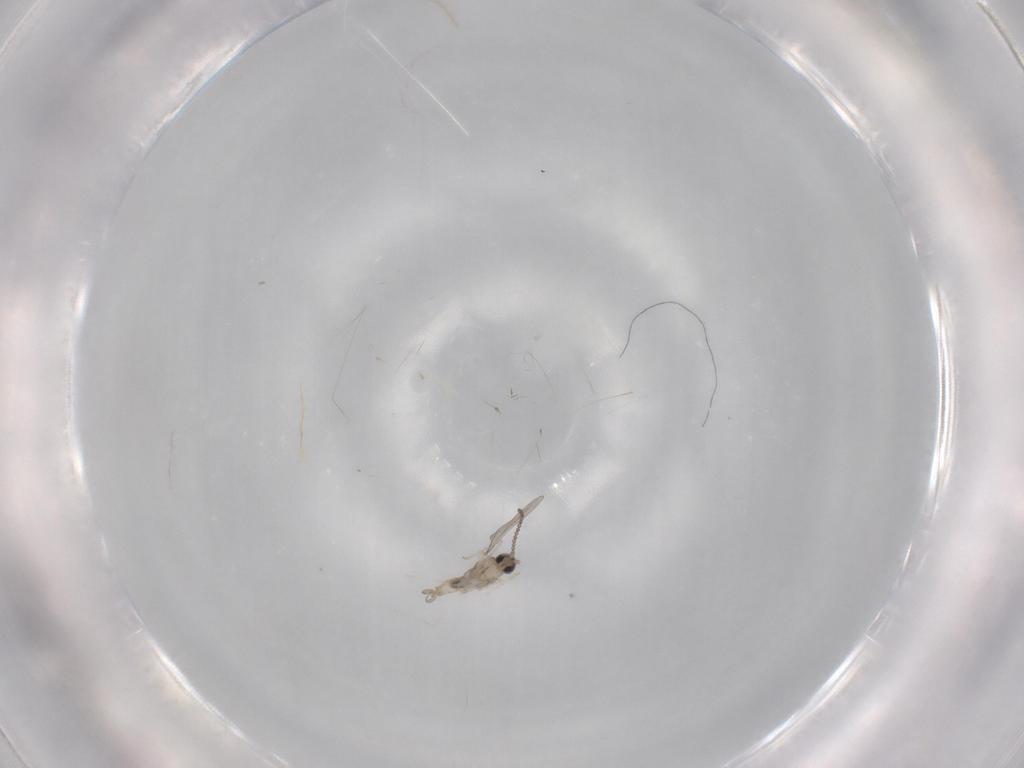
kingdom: Animalia
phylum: Arthropoda
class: Insecta
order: Diptera
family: Cecidomyiidae
